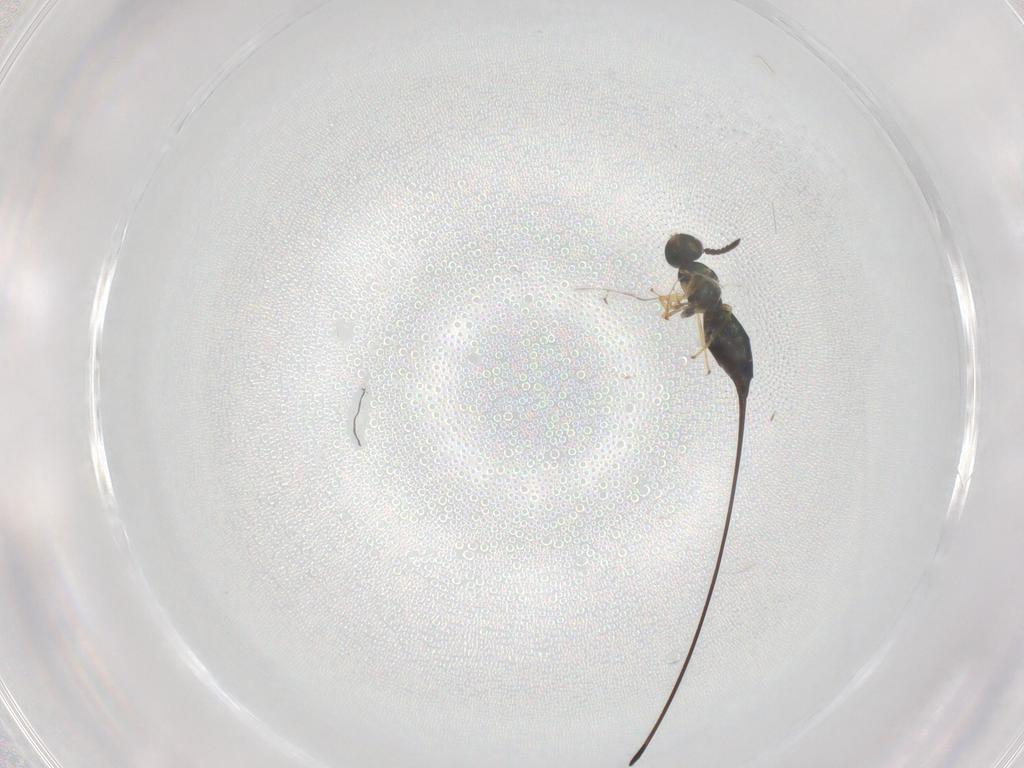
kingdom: Animalia
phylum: Arthropoda
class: Insecta
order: Hymenoptera
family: Pteromalidae
